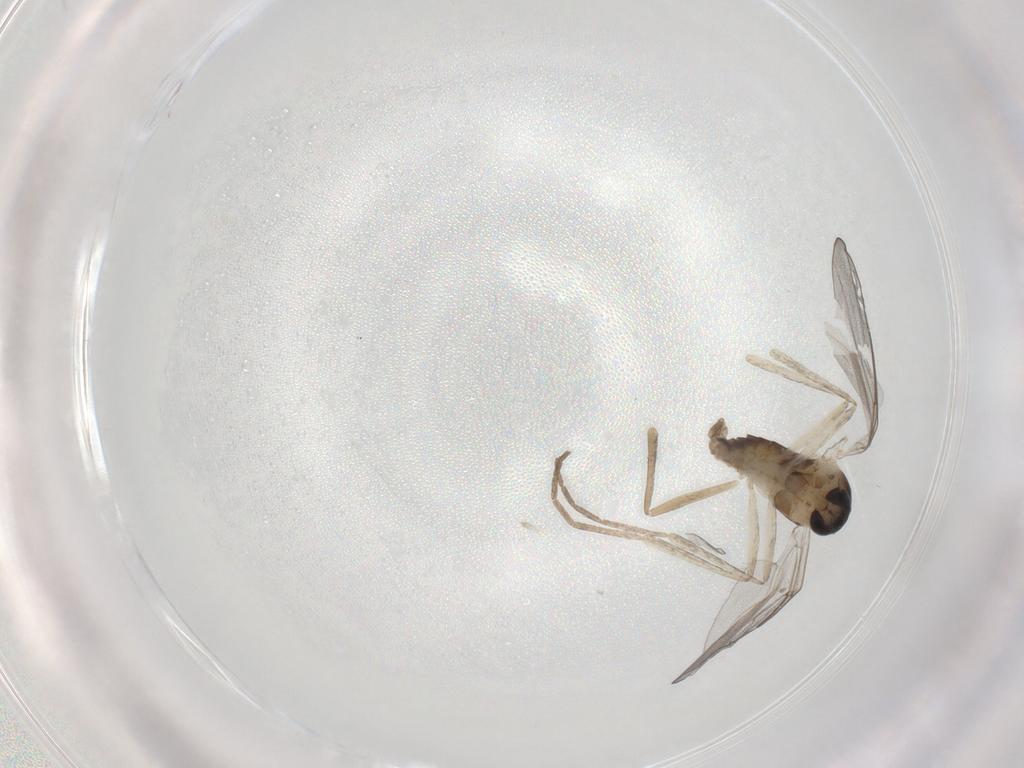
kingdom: Animalia
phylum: Arthropoda
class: Insecta
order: Diptera
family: Cecidomyiidae
